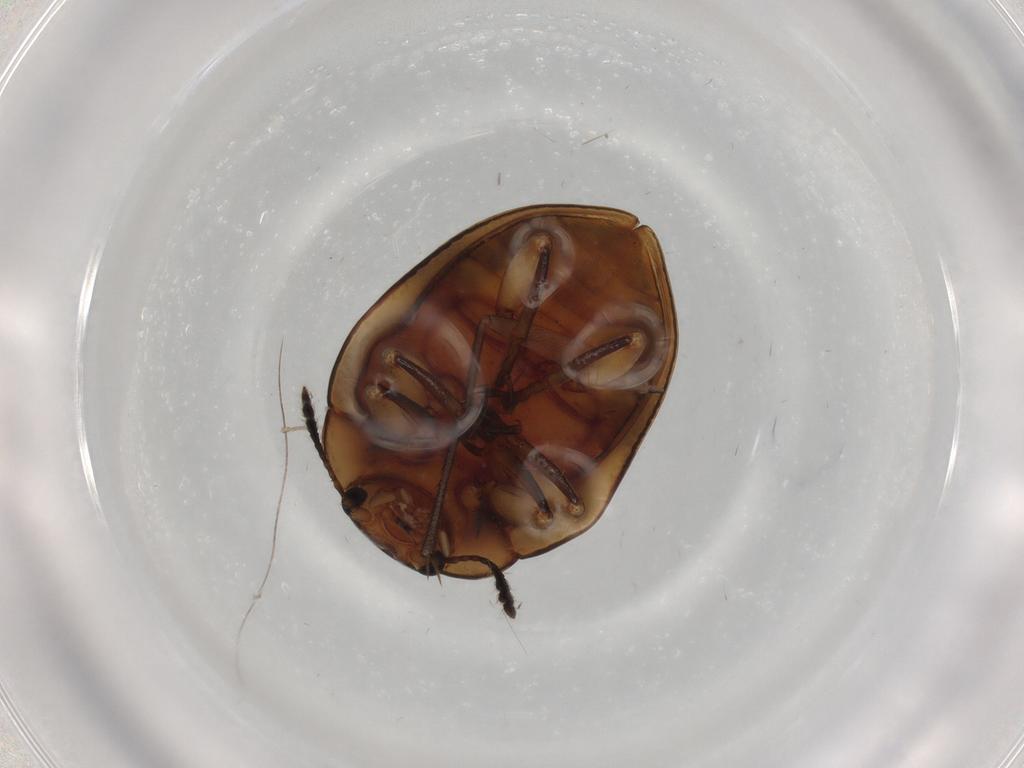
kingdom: Animalia
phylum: Arthropoda
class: Insecta
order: Coleoptera
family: Erotylidae
